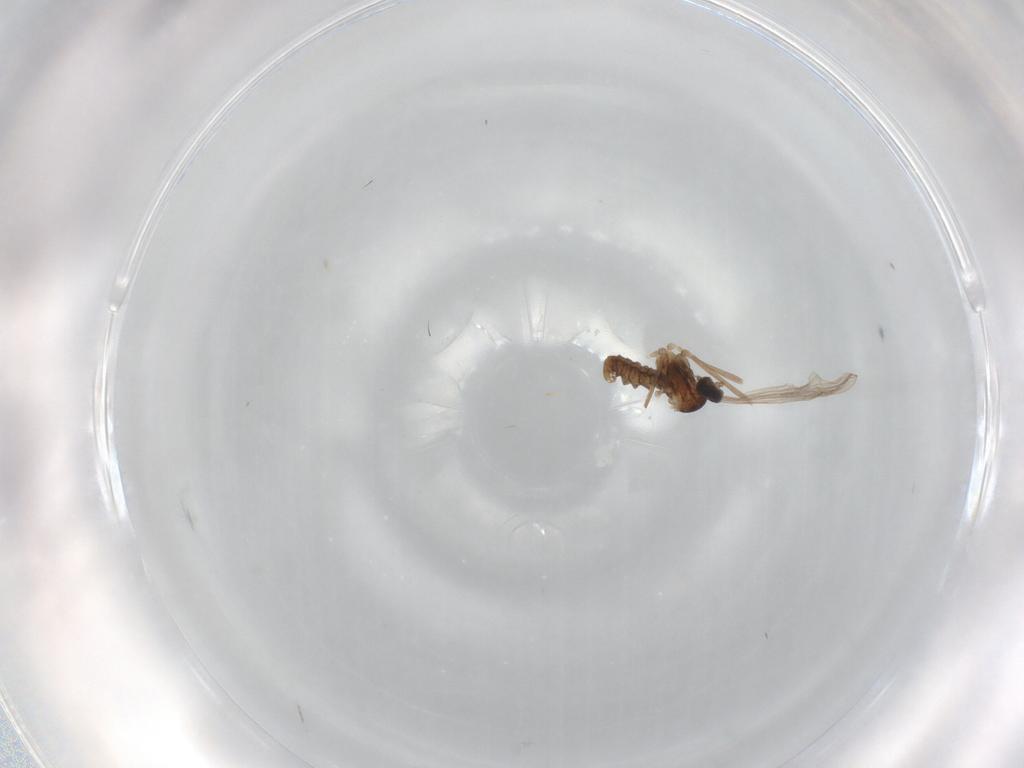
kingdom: Animalia
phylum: Arthropoda
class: Insecta
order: Diptera
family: Cecidomyiidae
